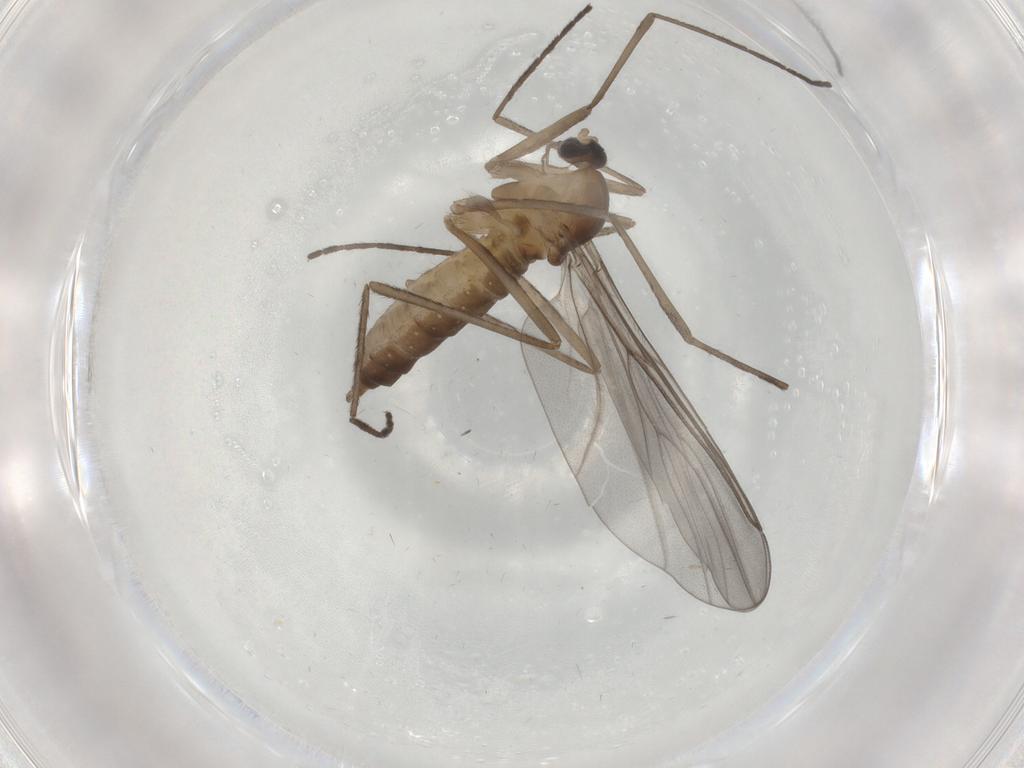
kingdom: Animalia
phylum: Arthropoda
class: Insecta
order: Diptera
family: Cecidomyiidae
